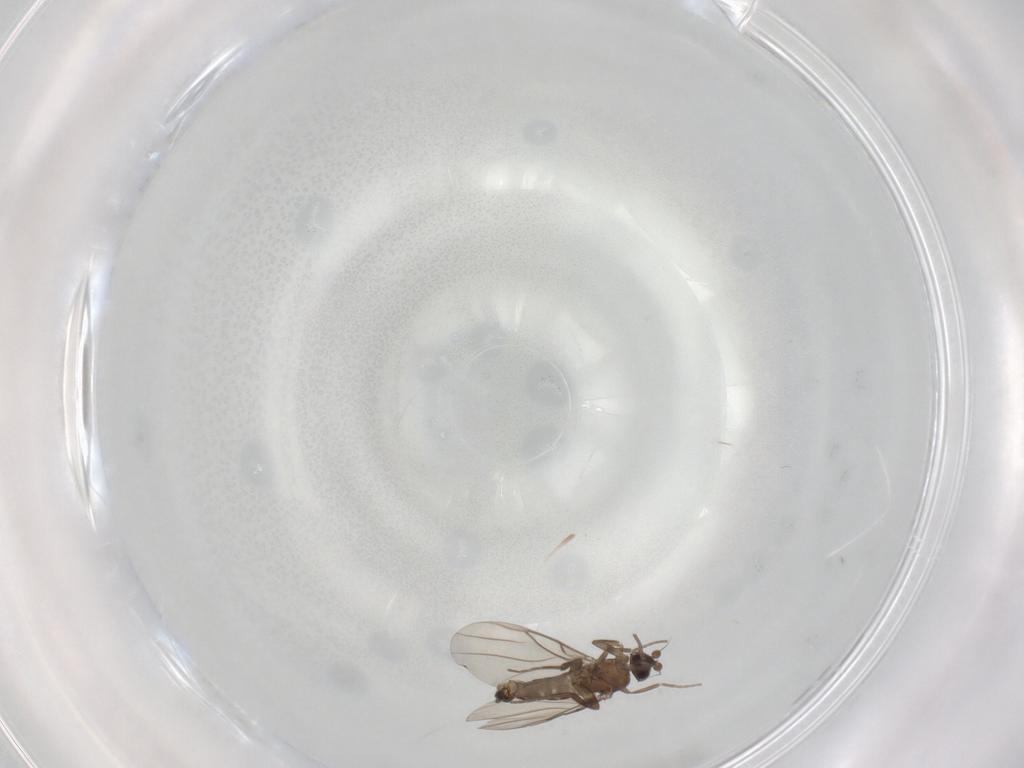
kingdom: Animalia
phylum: Arthropoda
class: Insecta
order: Diptera
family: Phoridae
